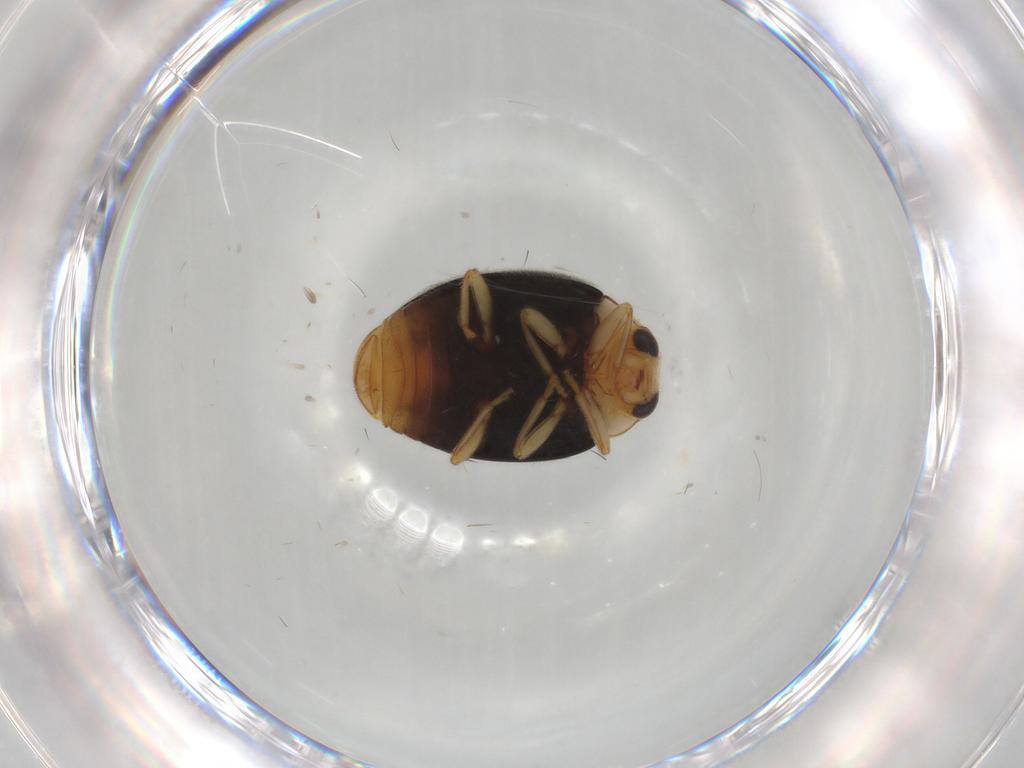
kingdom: Animalia
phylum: Arthropoda
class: Insecta
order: Coleoptera
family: Coccinellidae
